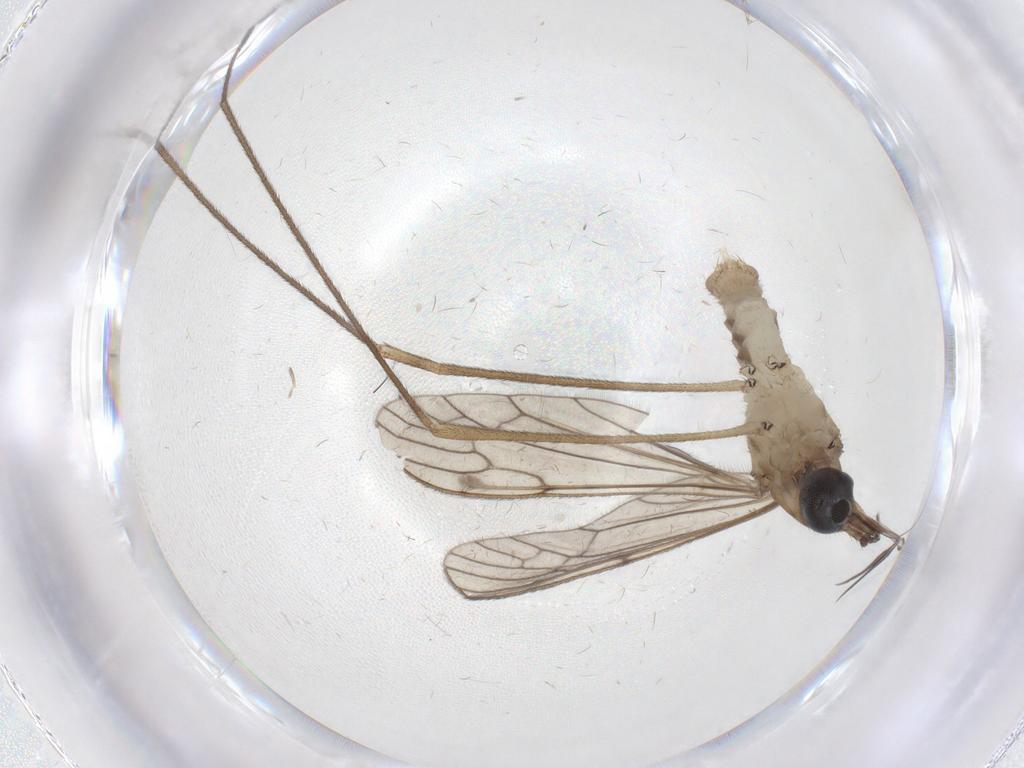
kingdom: Animalia
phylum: Arthropoda
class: Insecta
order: Diptera
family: Limoniidae
